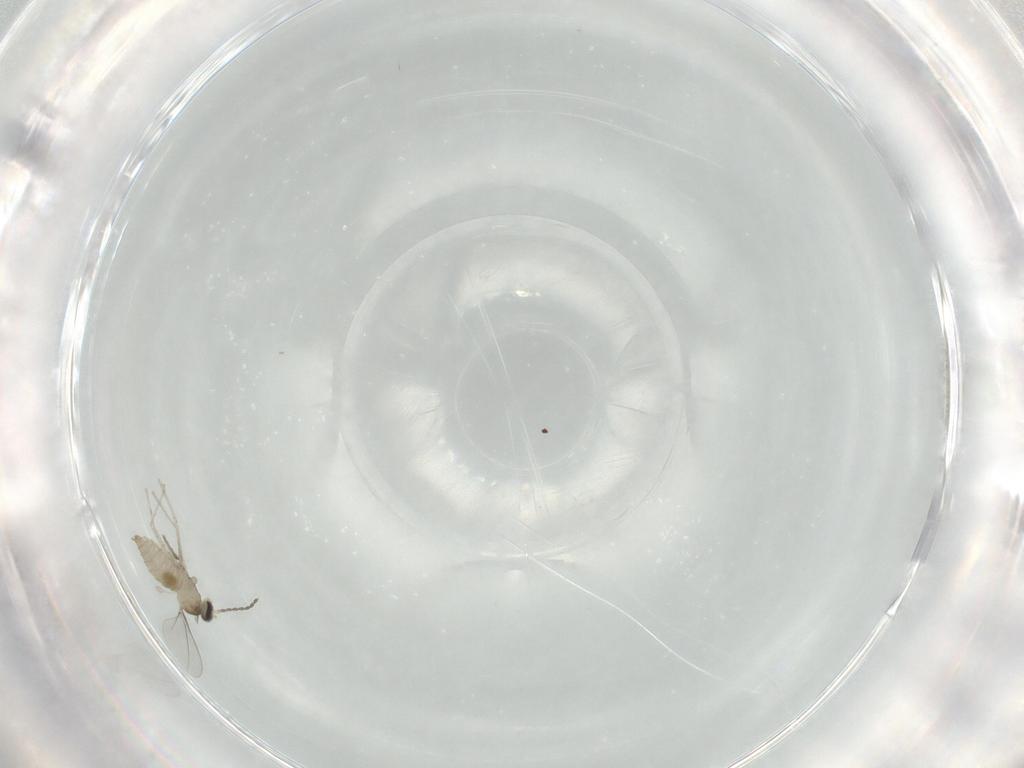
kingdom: Animalia
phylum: Arthropoda
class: Insecta
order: Diptera
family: Cecidomyiidae
